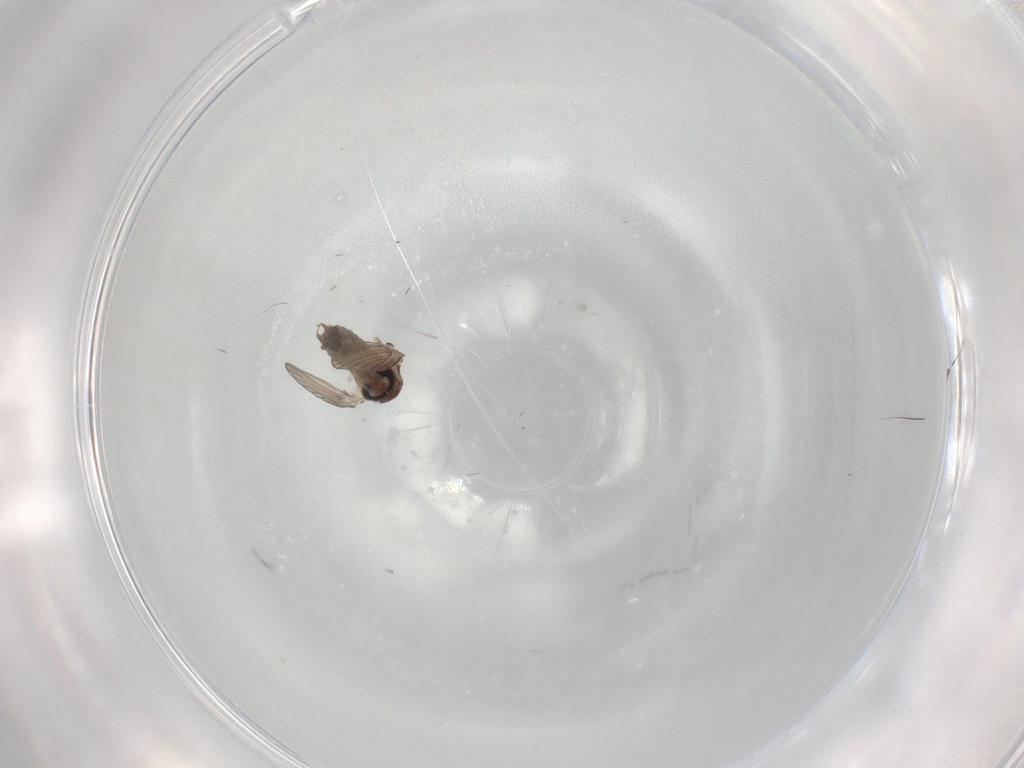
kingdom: Animalia
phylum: Arthropoda
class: Insecta
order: Diptera
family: Psychodidae
